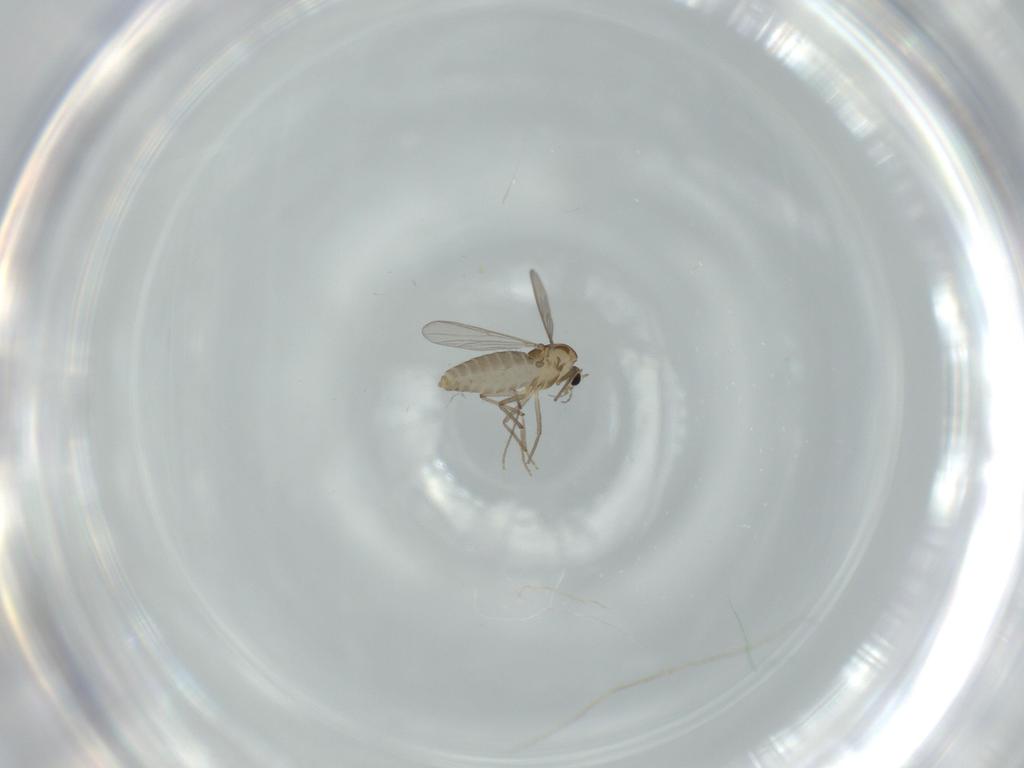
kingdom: Animalia
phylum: Arthropoda
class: Insecta
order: Diptera
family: Chironomidae
